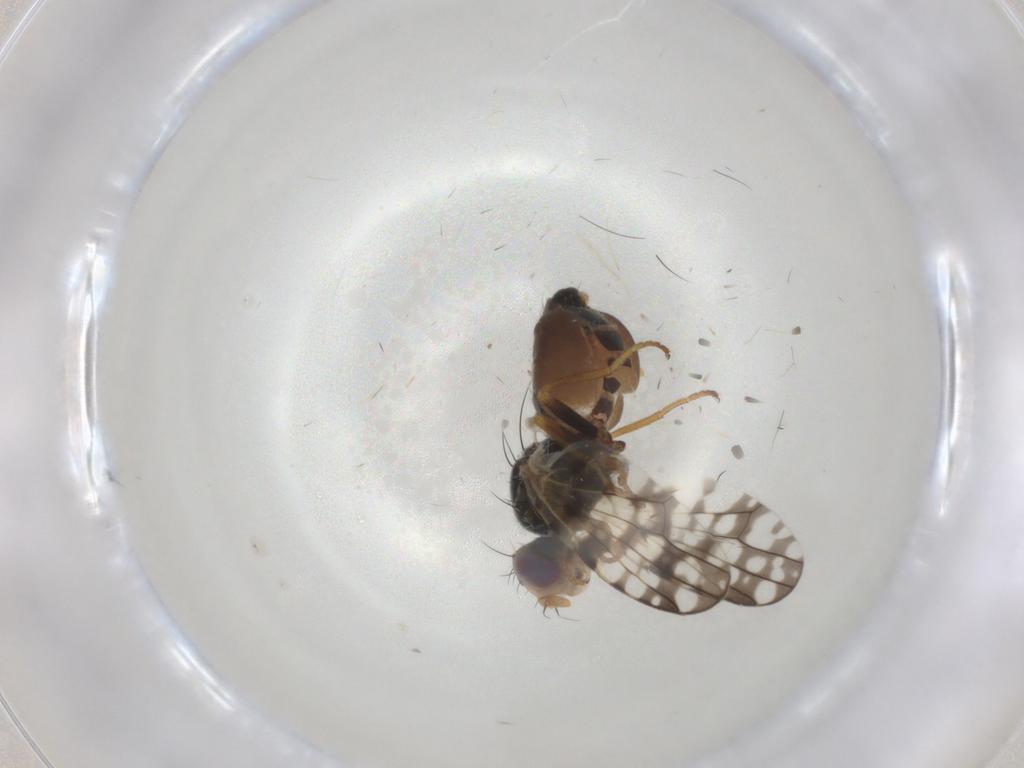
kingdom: Animalia
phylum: Arthropoda
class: Insecta
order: Diptera
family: Tephritidae
